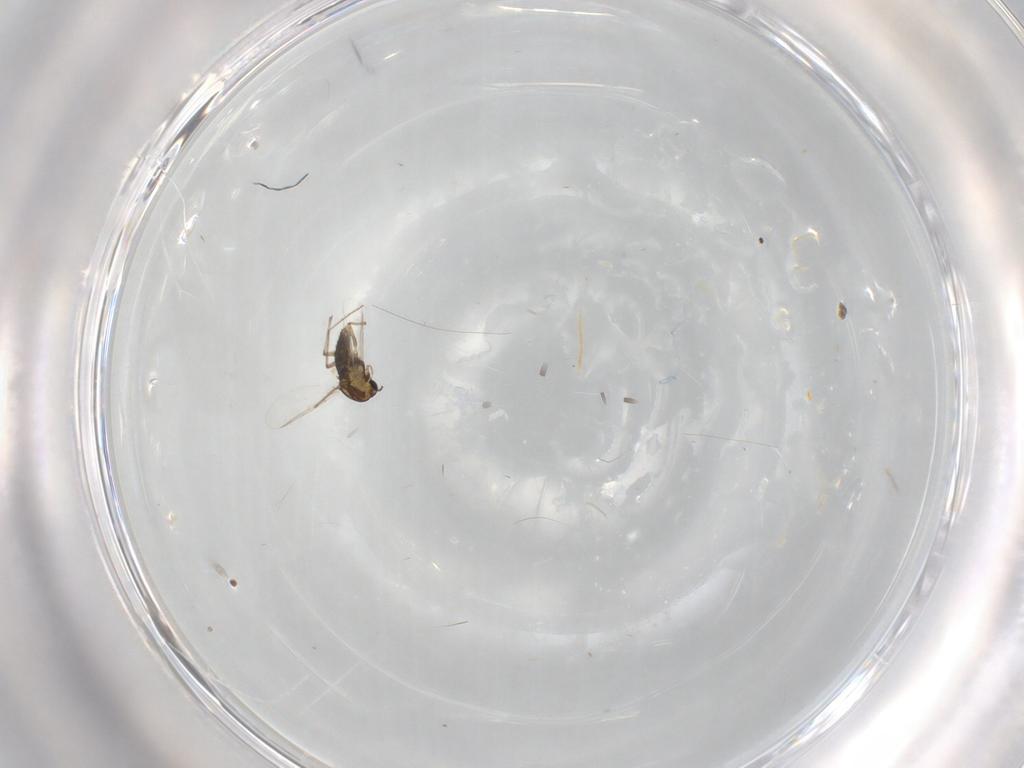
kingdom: Animalia
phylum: Arthropoda
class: Insecta
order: Diptera
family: Chironomidae
